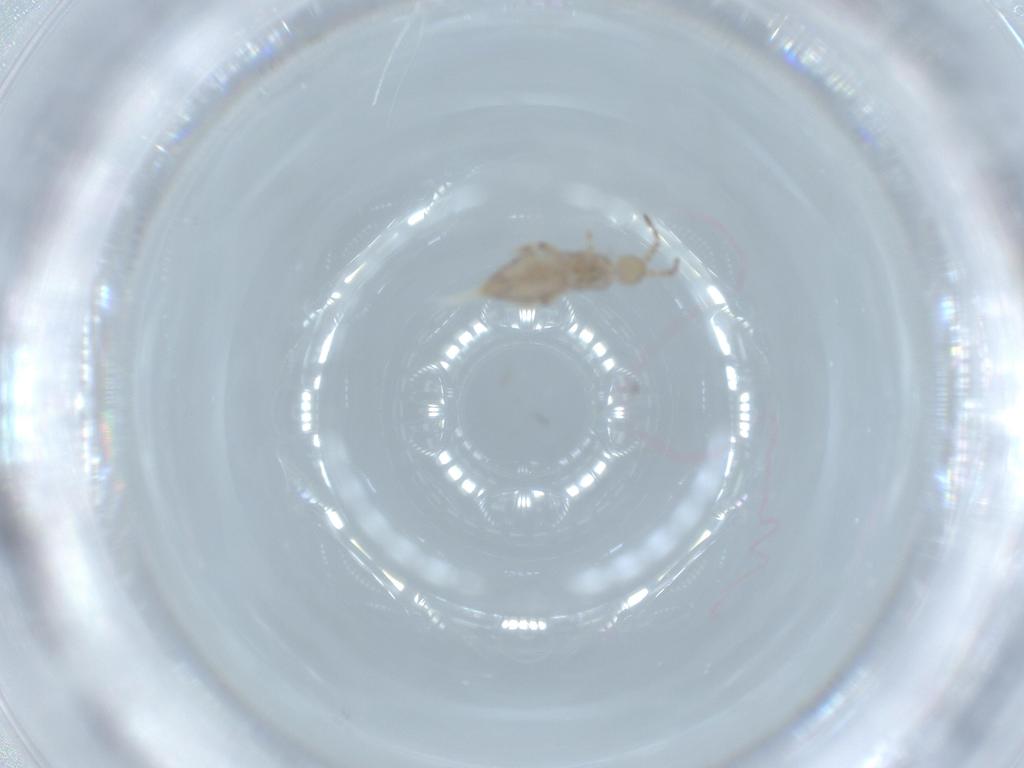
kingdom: Animalia
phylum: Arthropoda
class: Collembola
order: Entomobryomorpha
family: Entomobryidae
